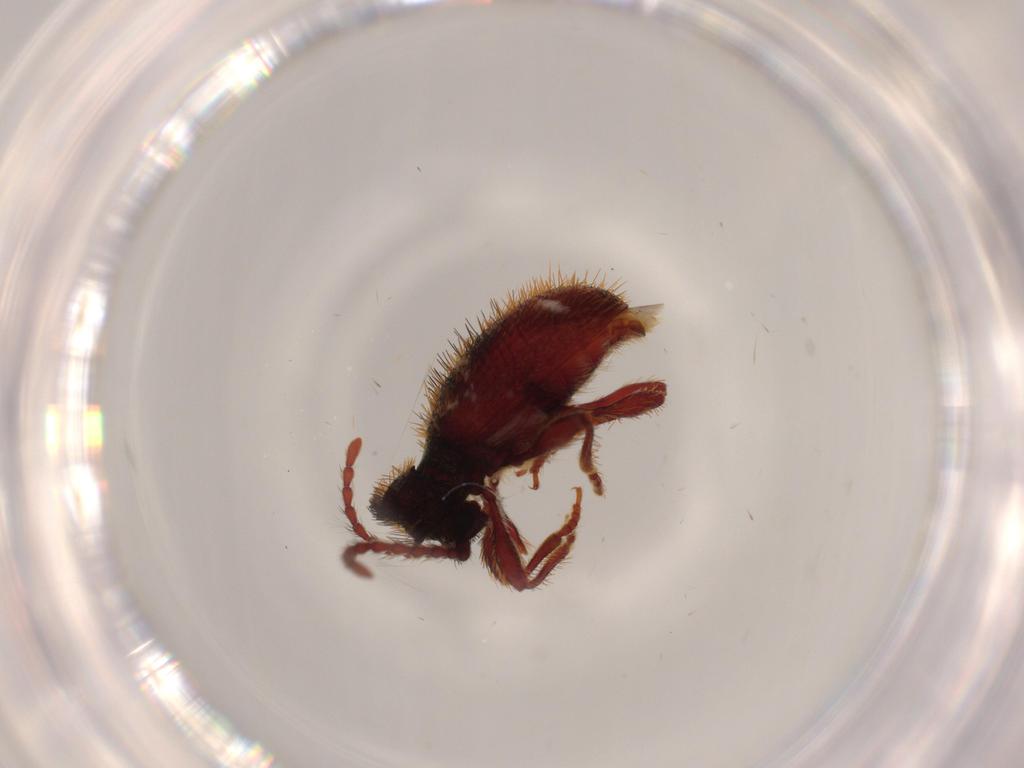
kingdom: Animalia
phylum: Arthropoda
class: Insecta
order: Coleoptera
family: Ptinidae
